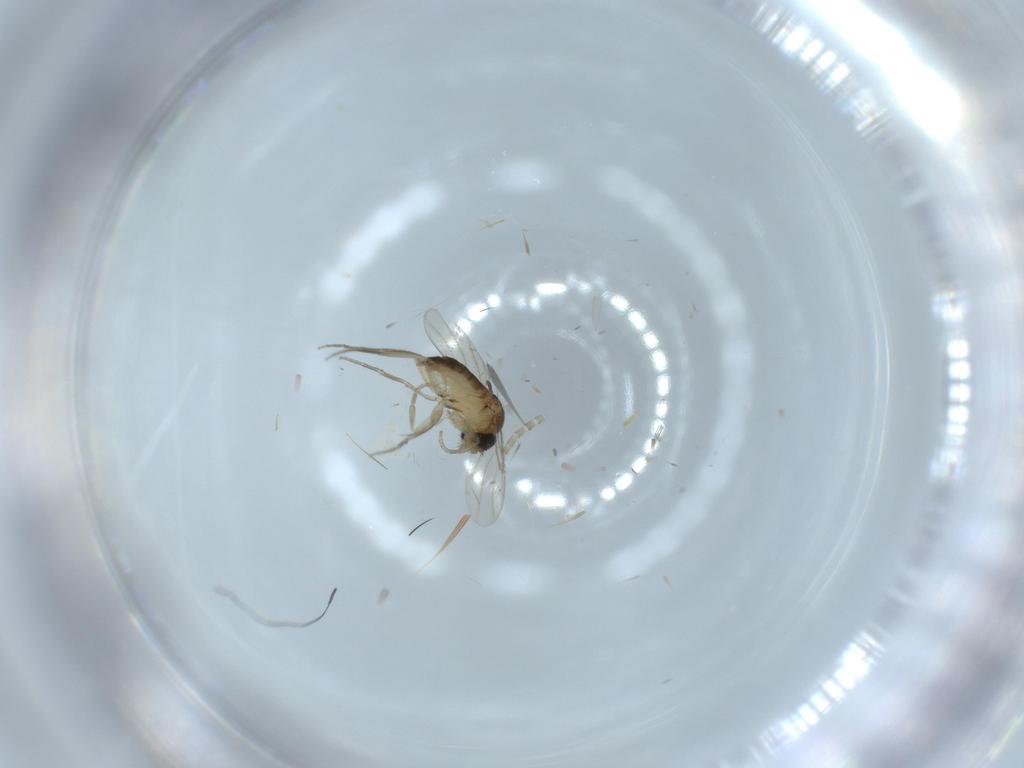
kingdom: Animalia
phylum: Arthropoda
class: Insecta
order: Diptera
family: Phoridae
